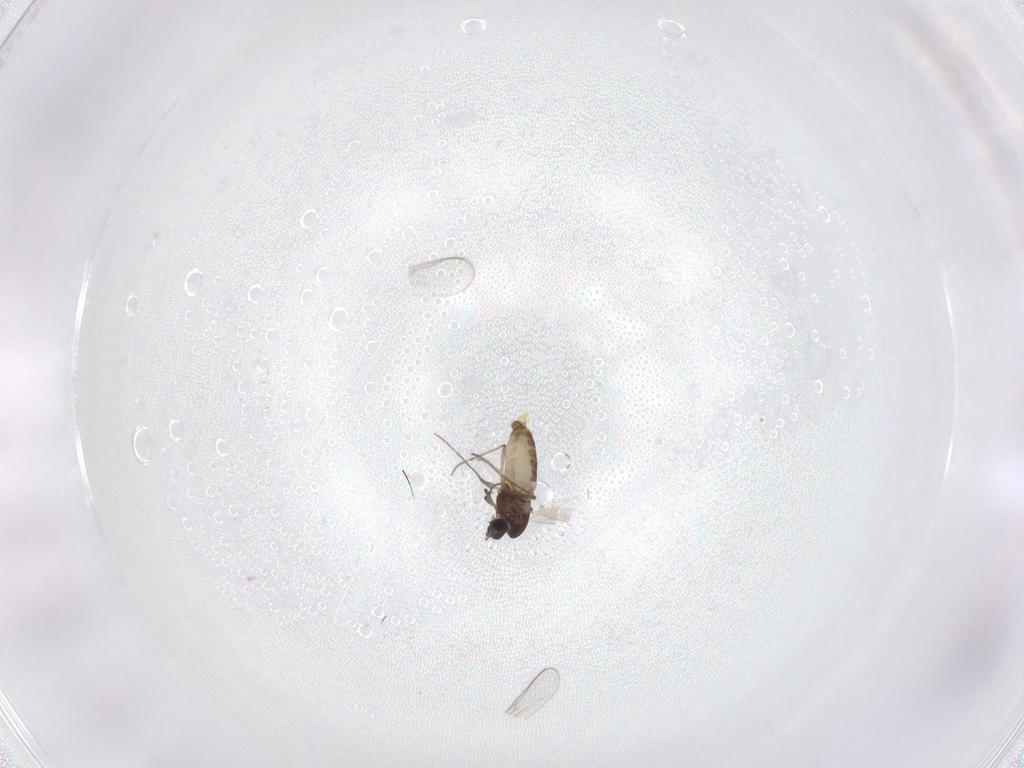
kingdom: Animalia
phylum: Arthropoda
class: Insecta
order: Diptera
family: Chironomidae
